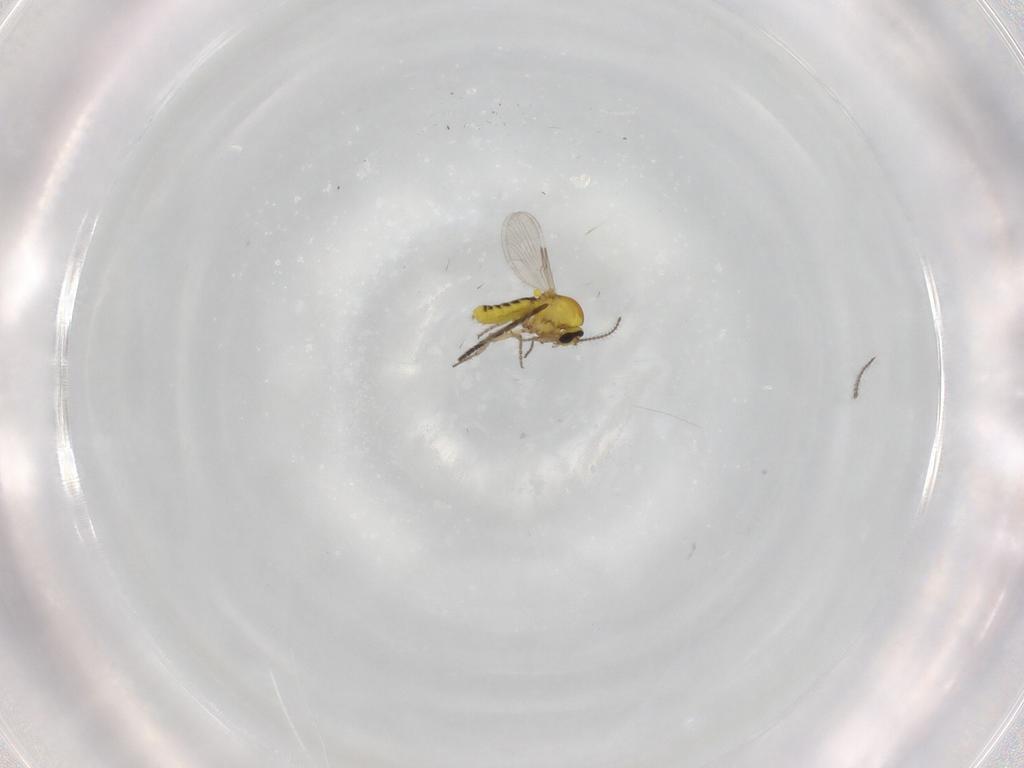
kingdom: Animalia
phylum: Arthropoda
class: Insecta
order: Diptera
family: Ceratopogonidae
